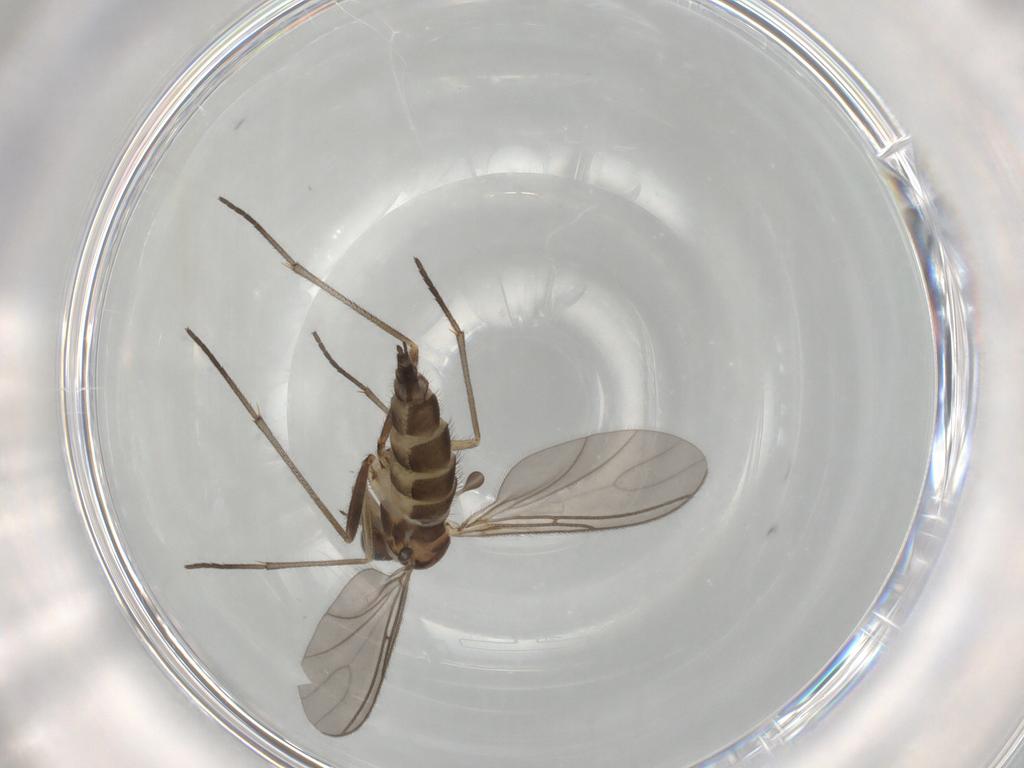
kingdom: Animalia
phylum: Arthropoda
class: Insecta
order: Diptera
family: Sciaridae
